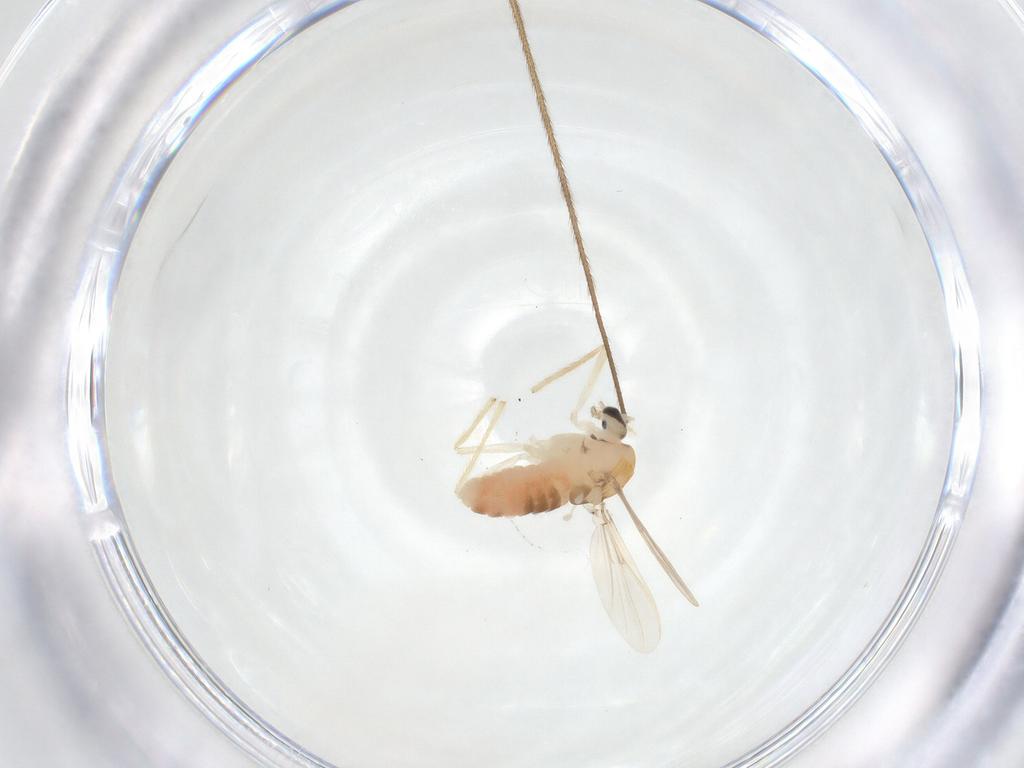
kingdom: Animalia
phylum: Arthropoda
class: Insecta
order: Diptera
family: Chironomidae
